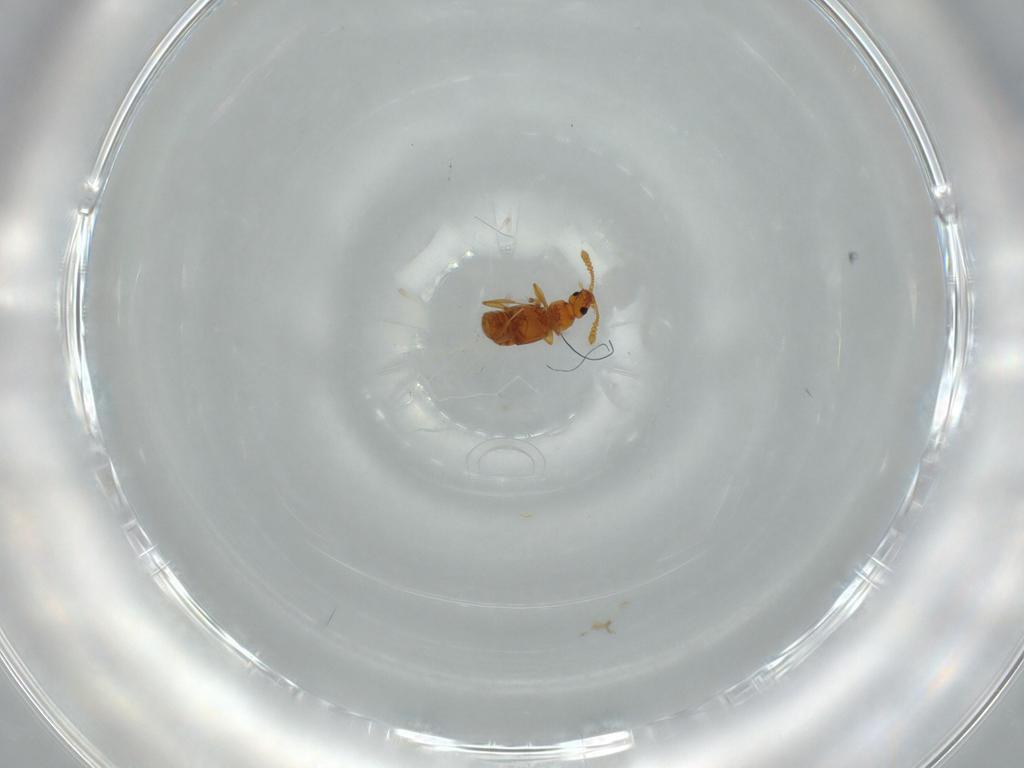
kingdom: Animalia
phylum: Arthropoda
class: Insecta
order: Coleoptera
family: Staphylinidae
